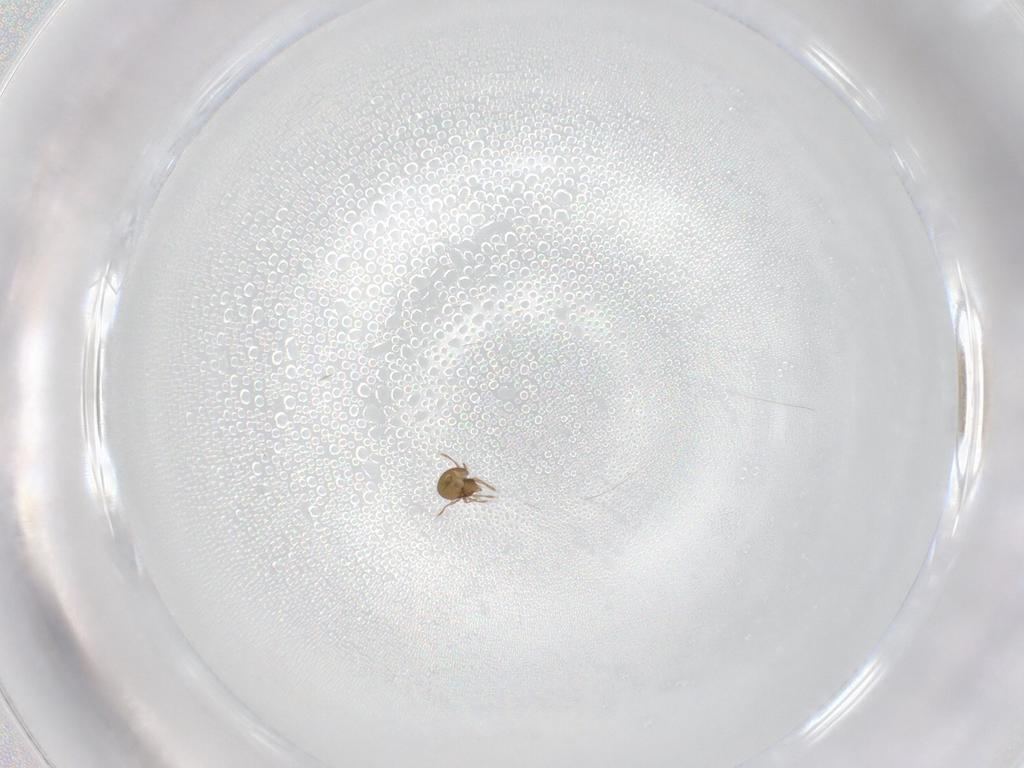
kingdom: Animalia
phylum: Arthropoda
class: Arachnida
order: Sarcoptiformes
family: Oribatulidae
